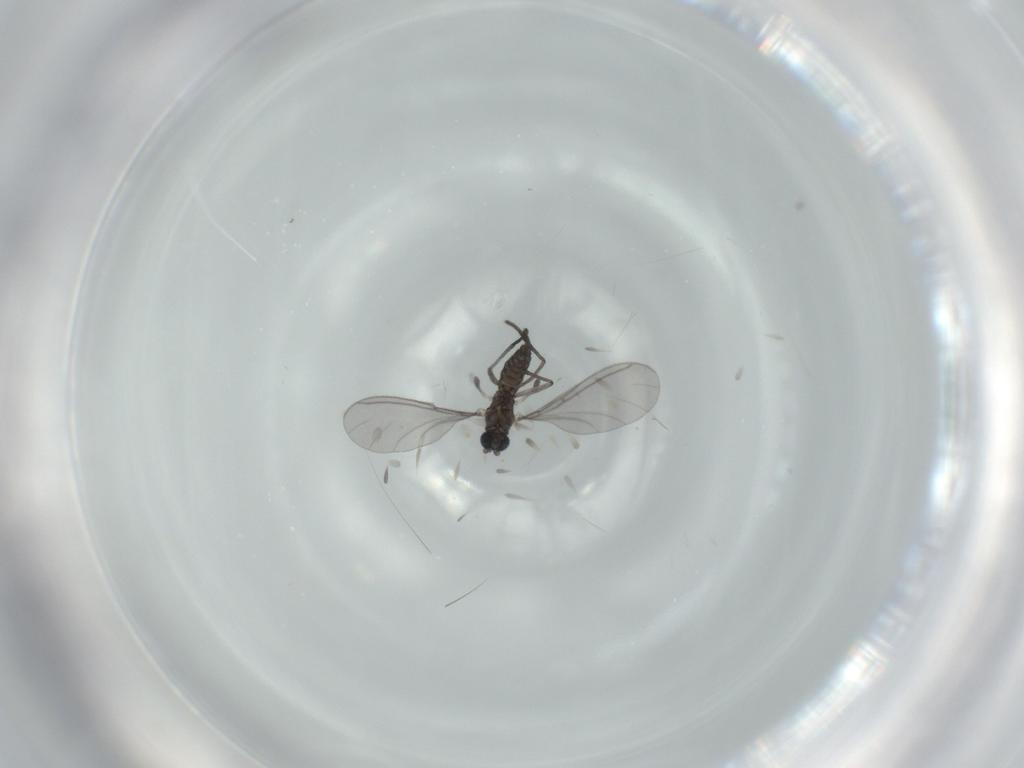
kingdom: Animalia
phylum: Arthropoda
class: Insecta
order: Diptera
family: Sciaridae
